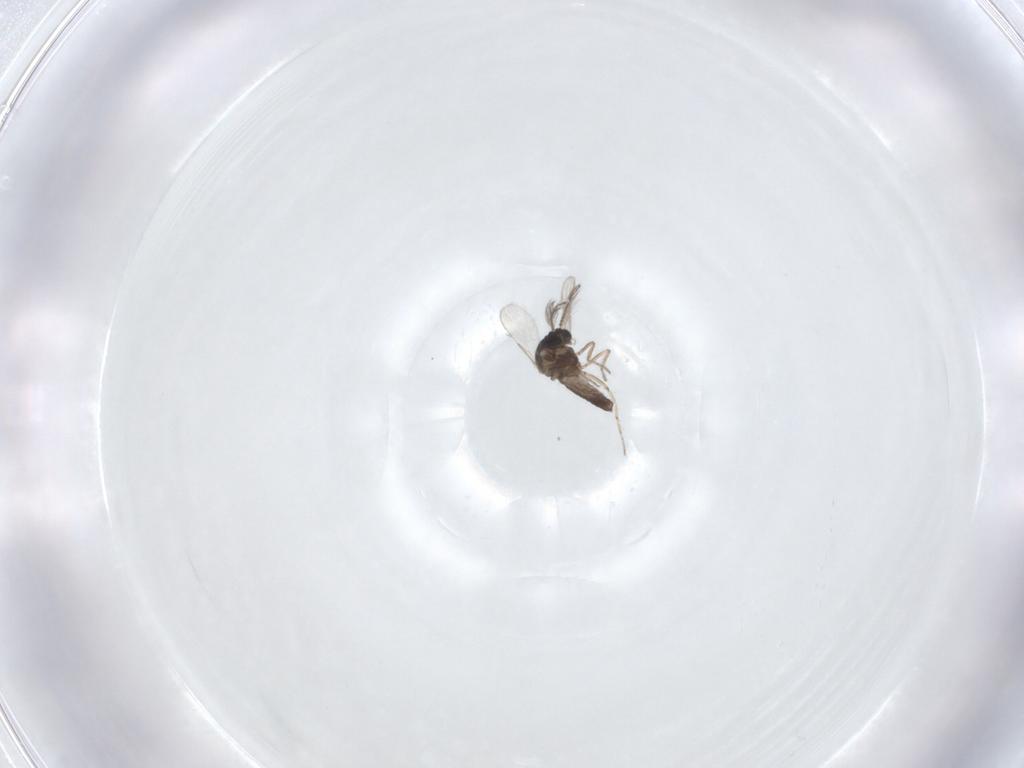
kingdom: Animalia
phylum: Arthropoda
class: Insecta
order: Diptera
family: Ceratopogonidae
